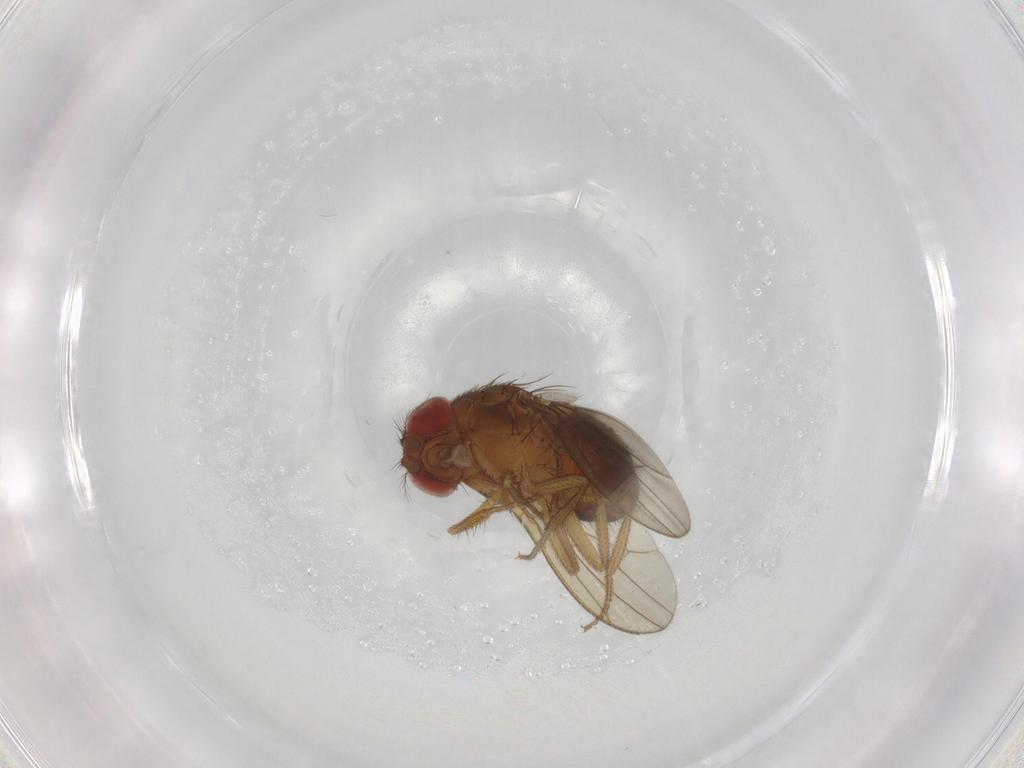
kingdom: Animalia
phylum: Arthropoda
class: Insecta
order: Diptera
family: Drosophilidae
